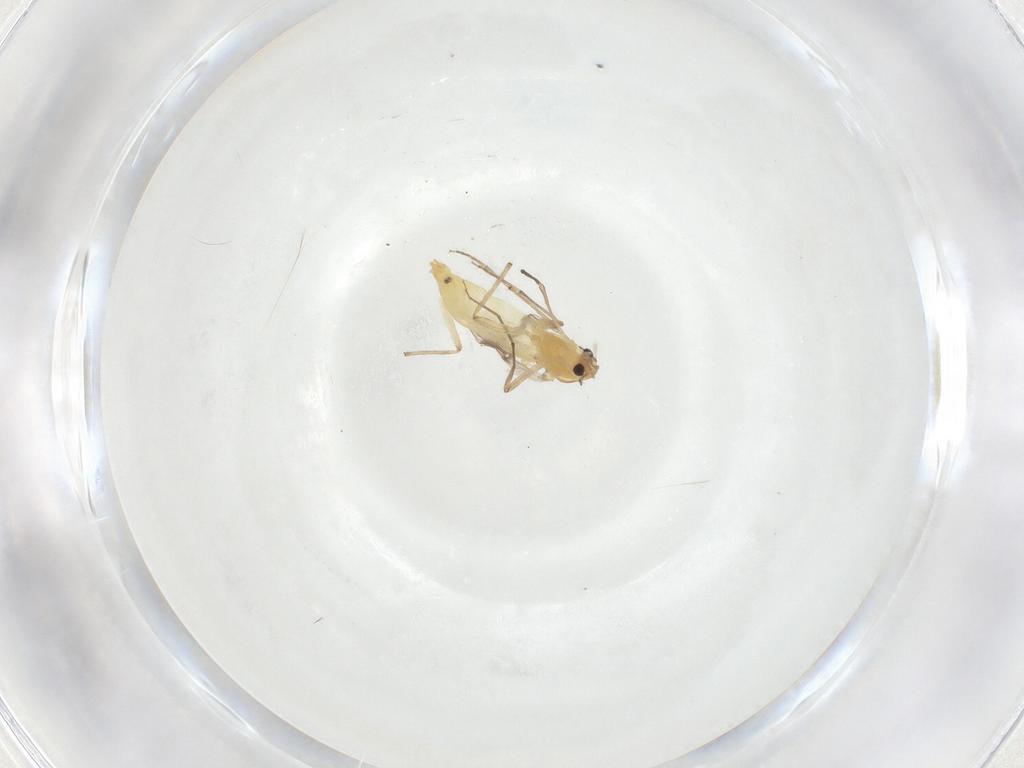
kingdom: Animalia
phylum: Arthropoda
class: Insecta
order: Diptera
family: Chironomidae
